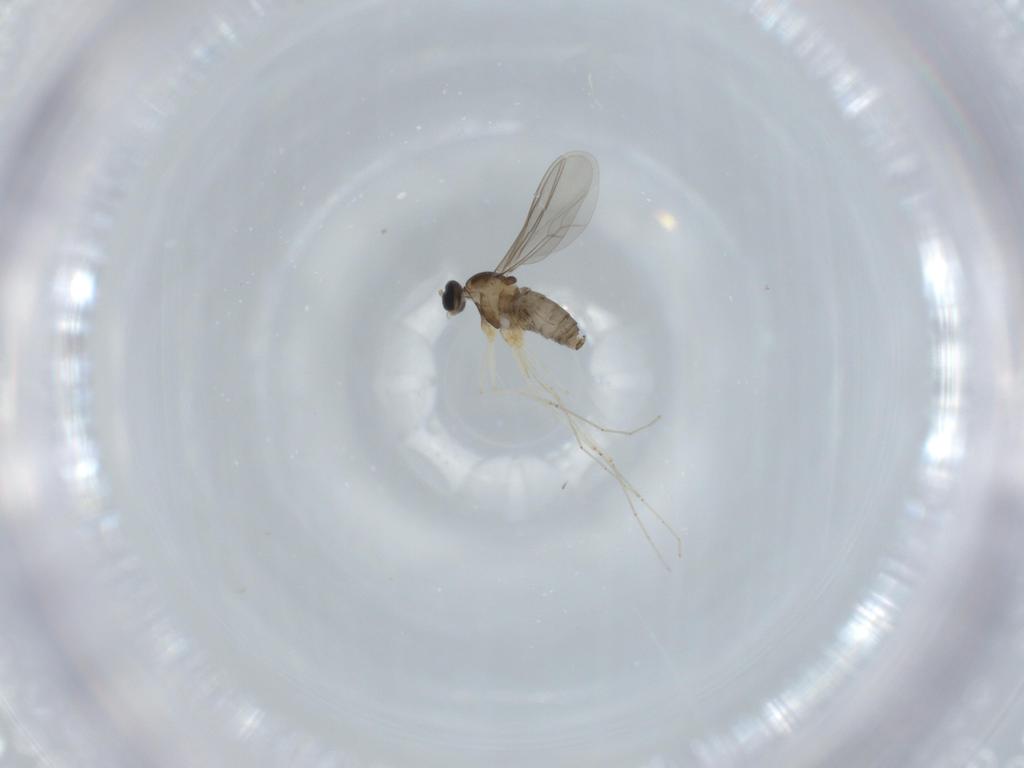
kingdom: Animalia
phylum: Arthropoda
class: Insecta
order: Diptera
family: Cecidomyiidae
